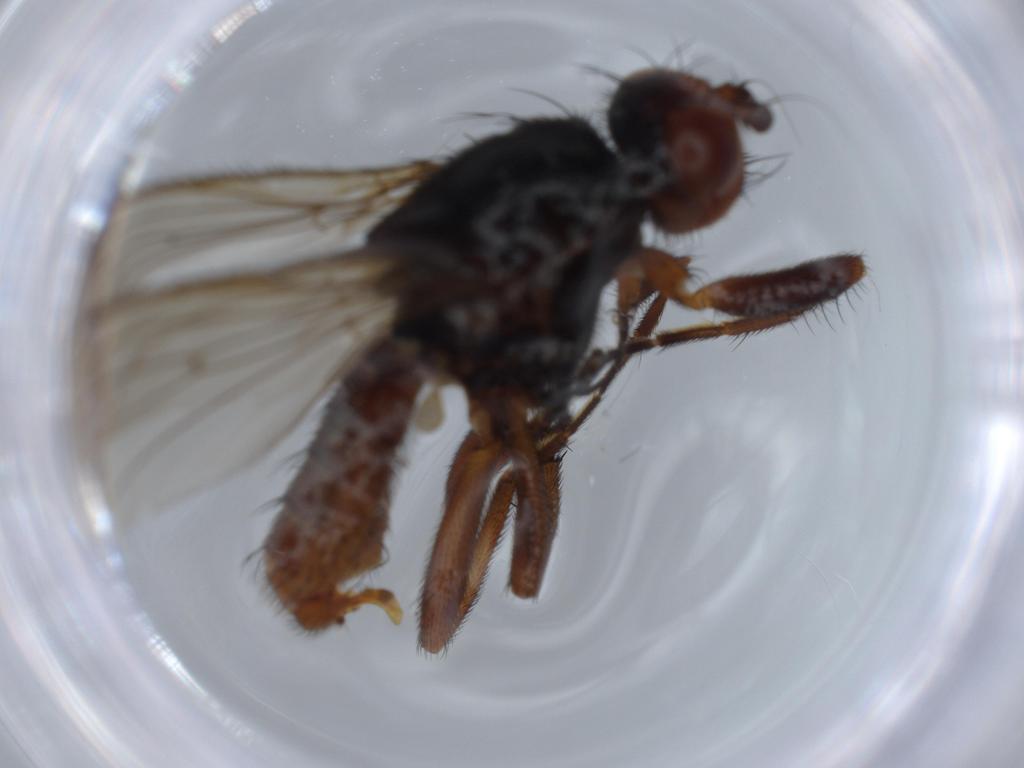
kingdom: Animalia
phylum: Arthropoda
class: Insecta
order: Diptera
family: Heleomyzidae
